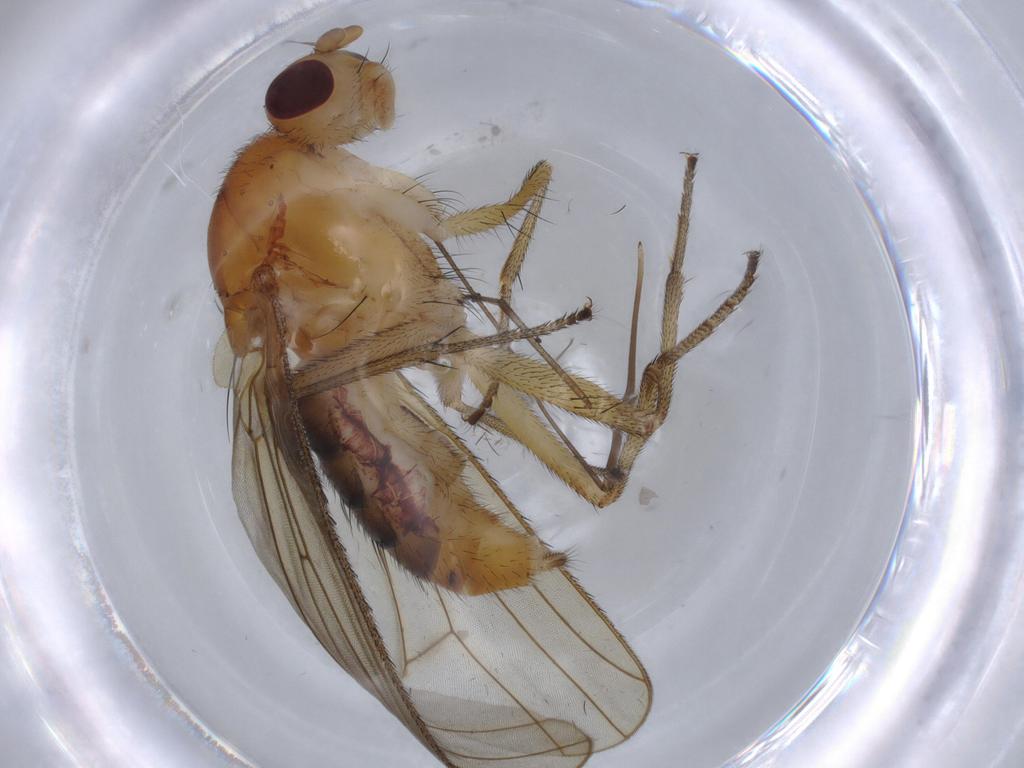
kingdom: Animalia
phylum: Arthropoda
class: Insecta
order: Diptera
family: Heleomyzidae
